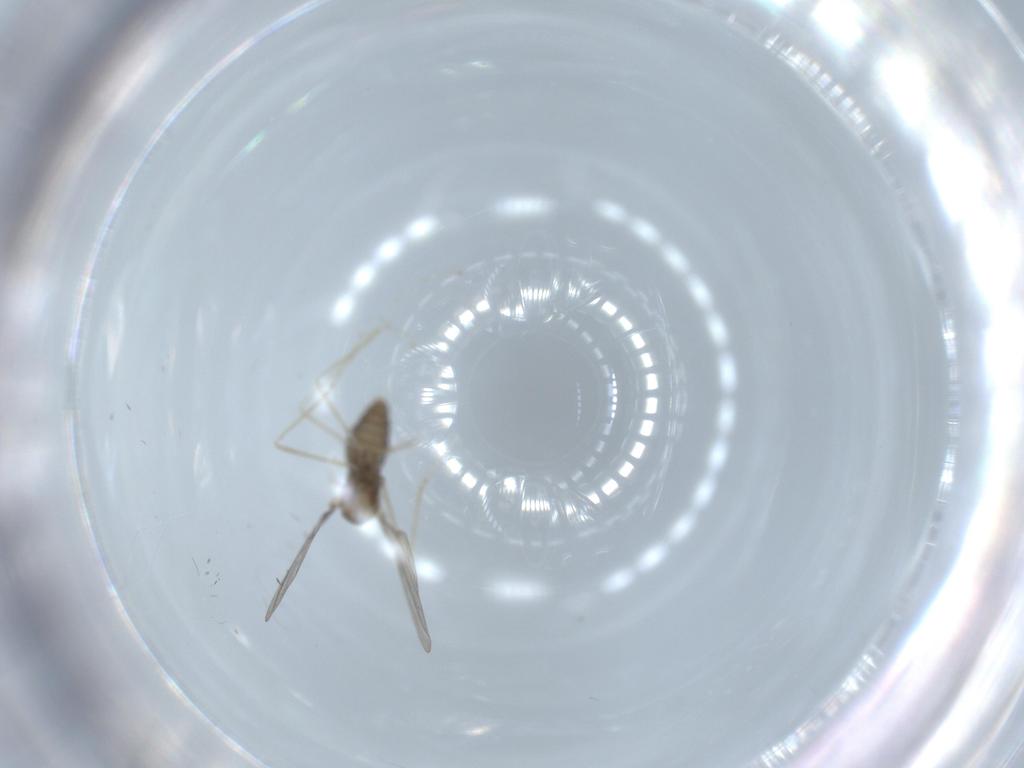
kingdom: Animalia
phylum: Arthropoda
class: Insecta
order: Diptera
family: Cecidomyiidae
